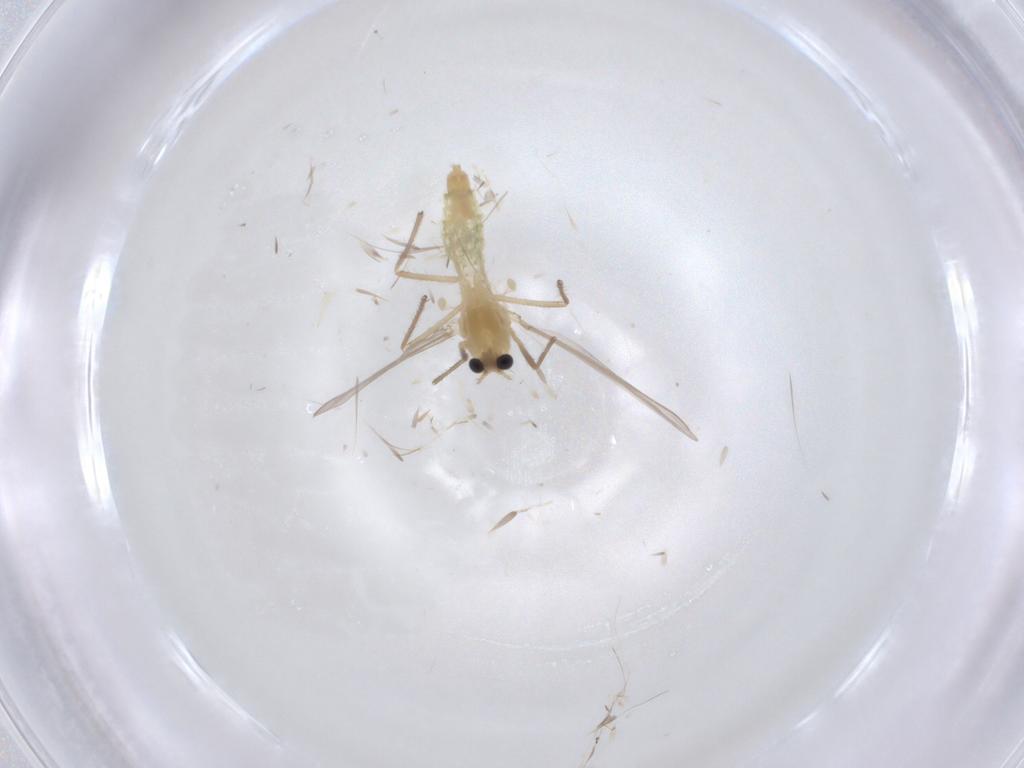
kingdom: Animalia
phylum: Arthropoda
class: Insecta
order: Diptera
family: Chironomidae
